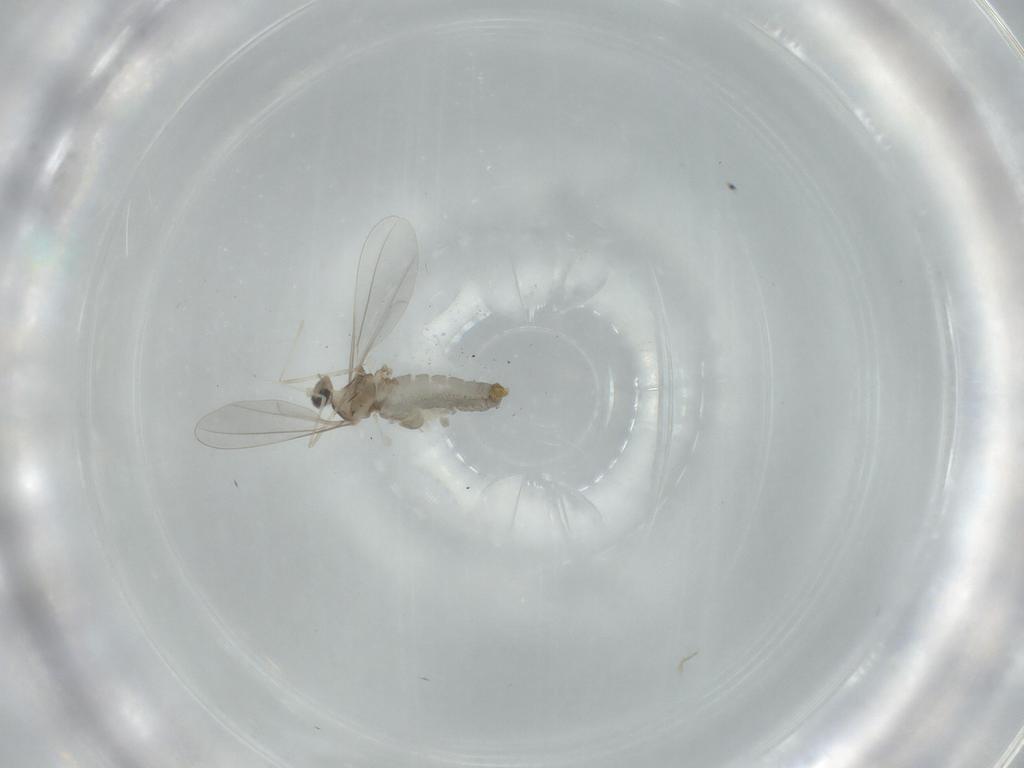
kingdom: Animalia
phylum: Arthropoda
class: Insecta
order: Diptera
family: Cecidomyiidae
